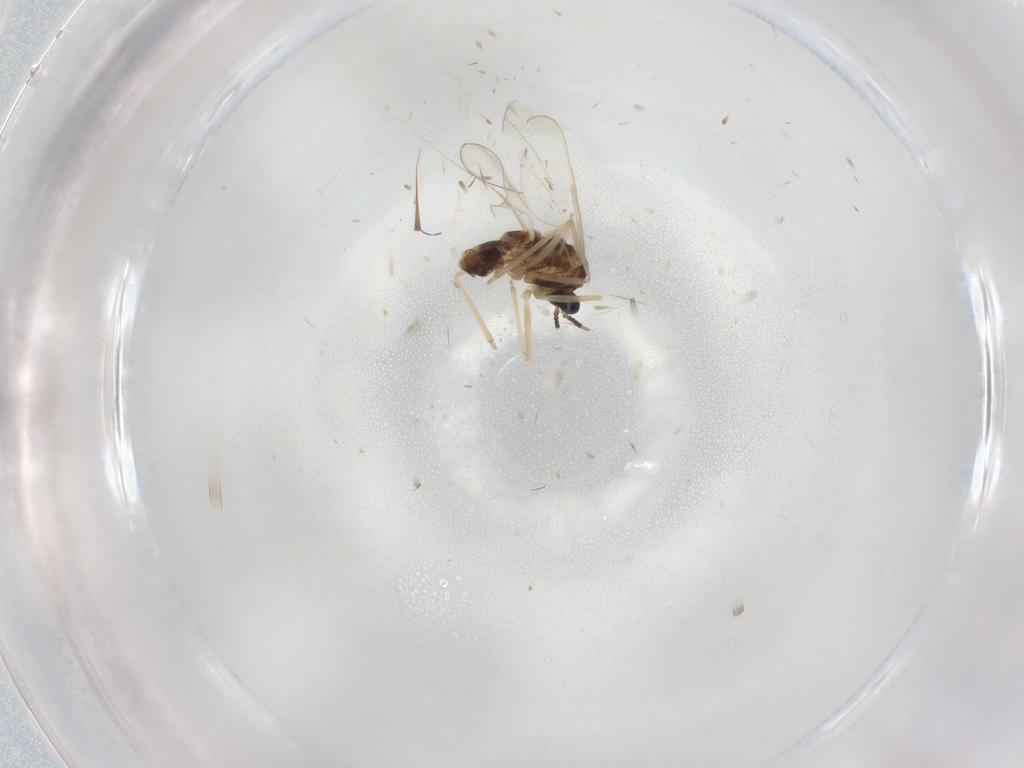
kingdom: Animalia
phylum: Arthropoda
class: Insecta
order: Diptera
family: Cecidomyiidae
